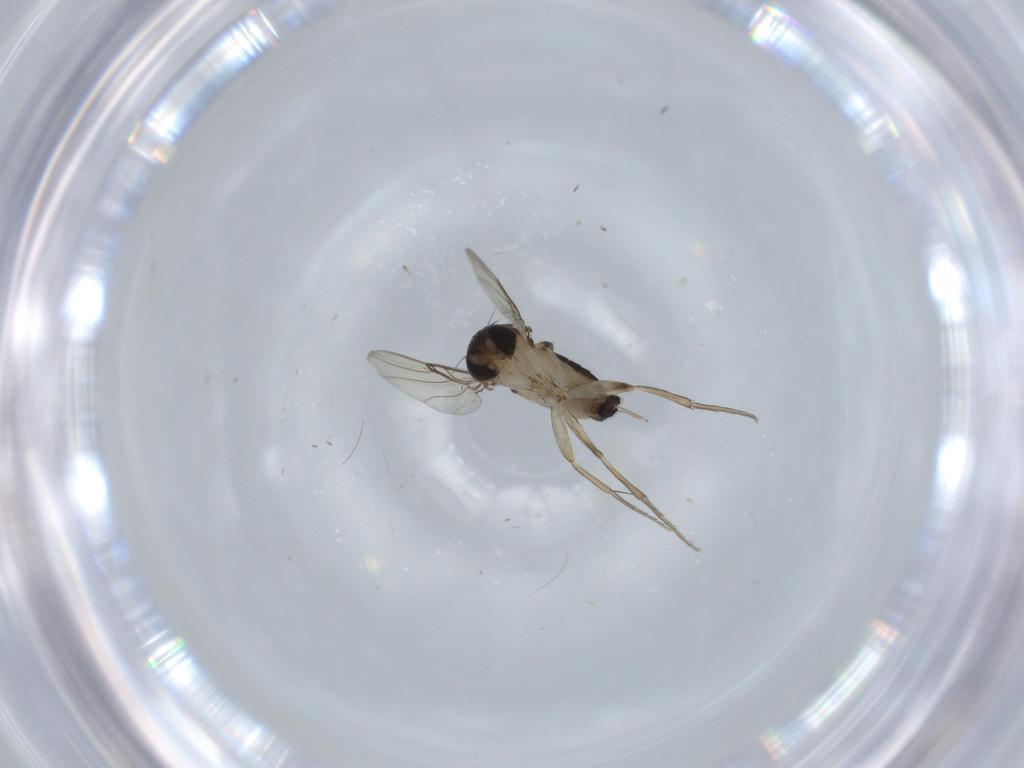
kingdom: Animalia
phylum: Arthropoda
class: Insecta
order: Diptera
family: Phoridae
